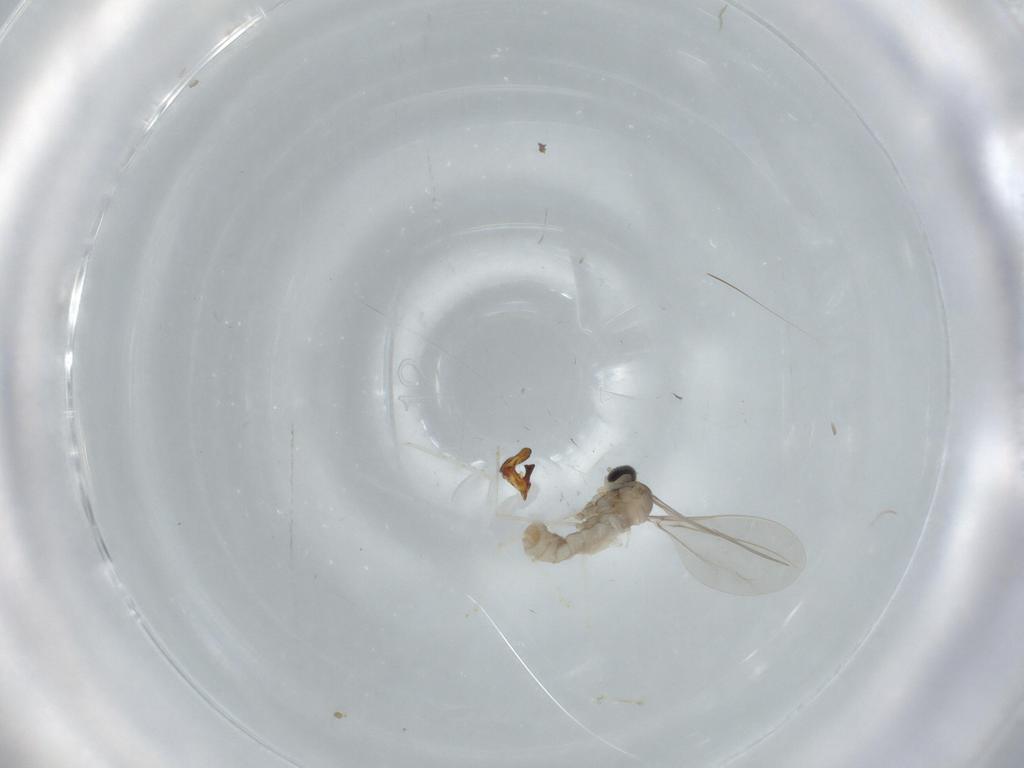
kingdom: Animalia
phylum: Arthropoda
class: Insecta
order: Diptera
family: Cecidomyiidae
